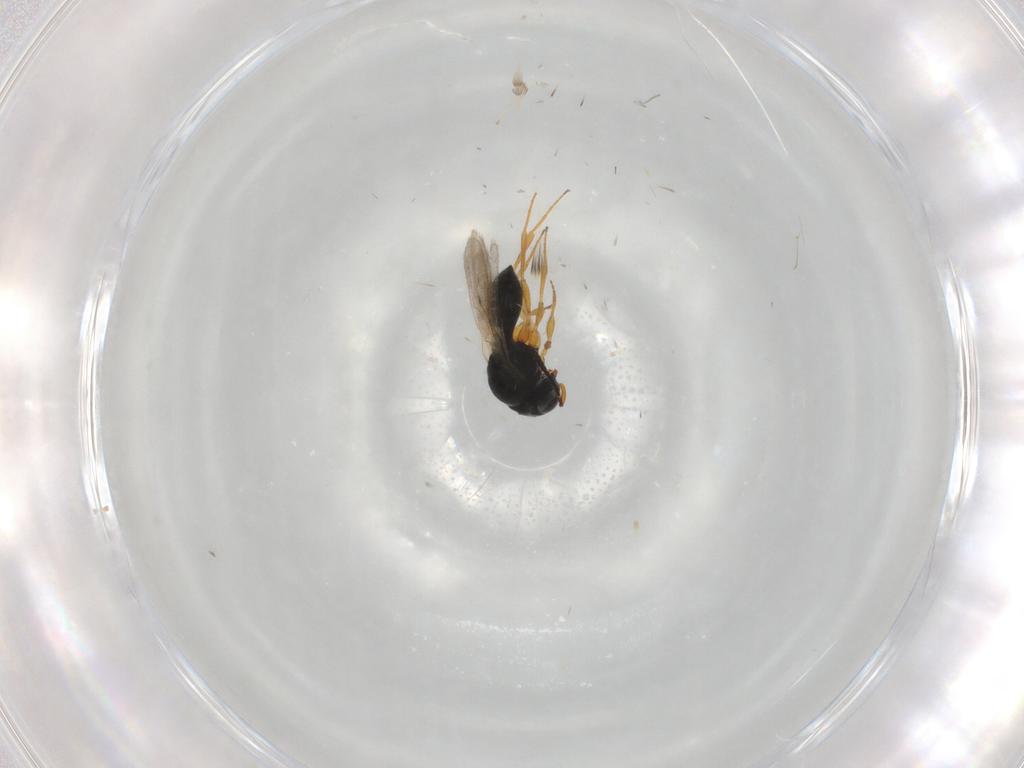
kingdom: Animalia
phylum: Arthropoda
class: Insecta
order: Hymenoptera
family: Scelionidae
